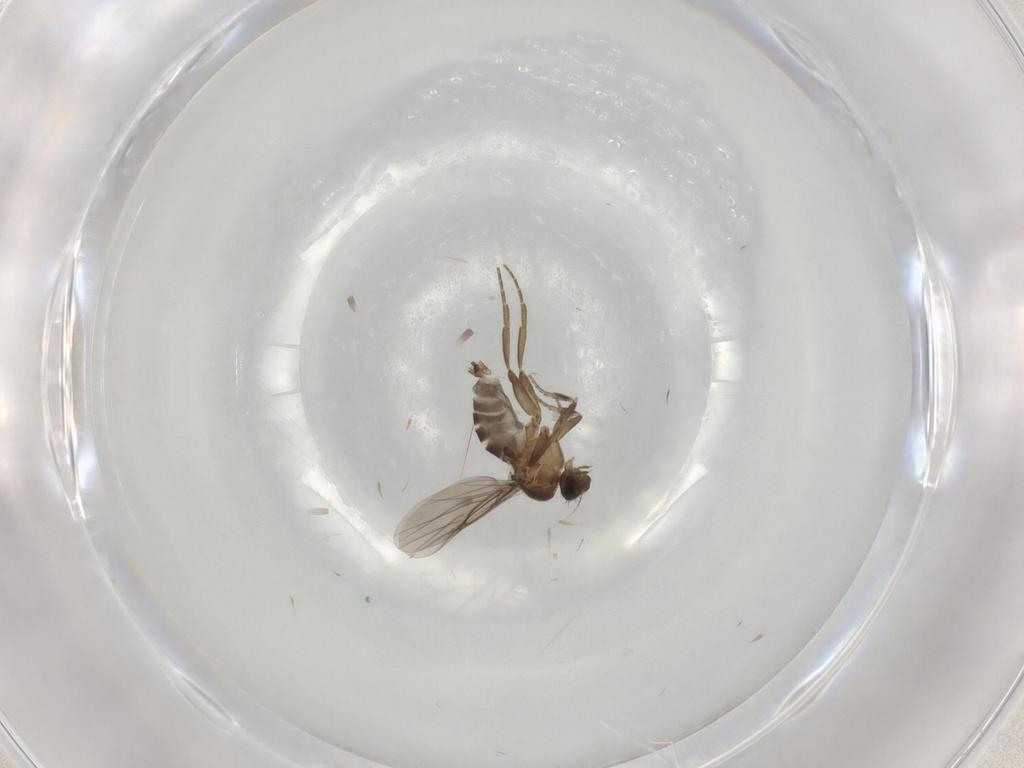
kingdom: Animalia
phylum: Arthropoda
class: Insecta
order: Diptera
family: Phoridae
